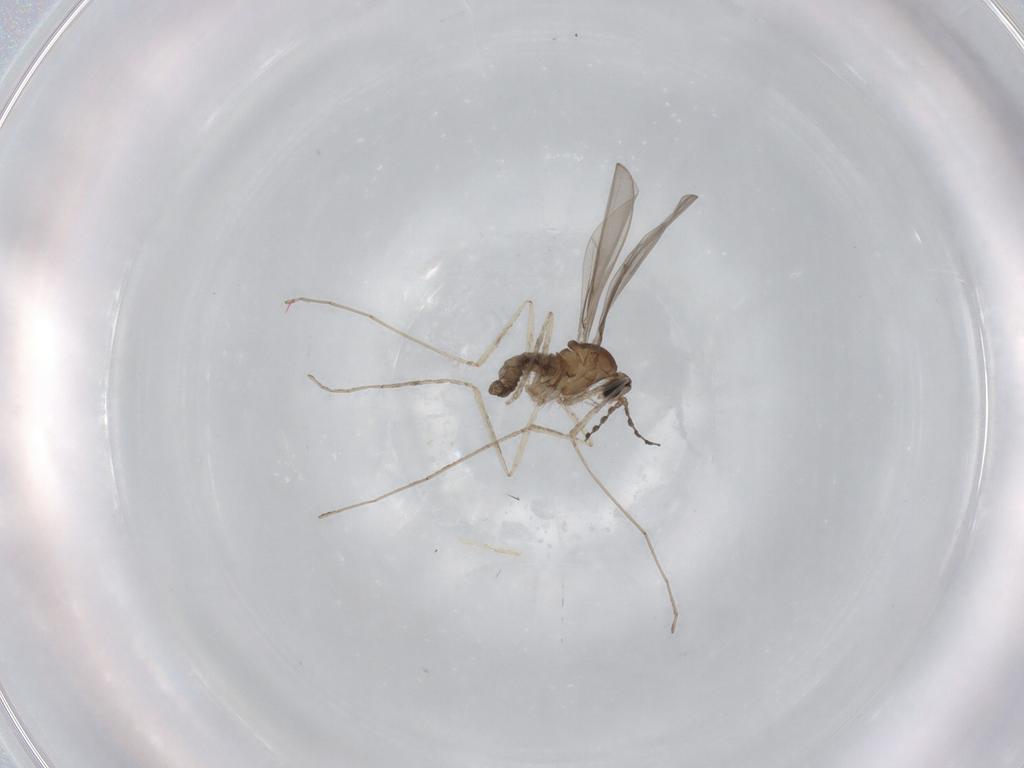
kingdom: Animalia
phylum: Arthropoda
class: Insecta
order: Diptera
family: Cecidomyiidae
